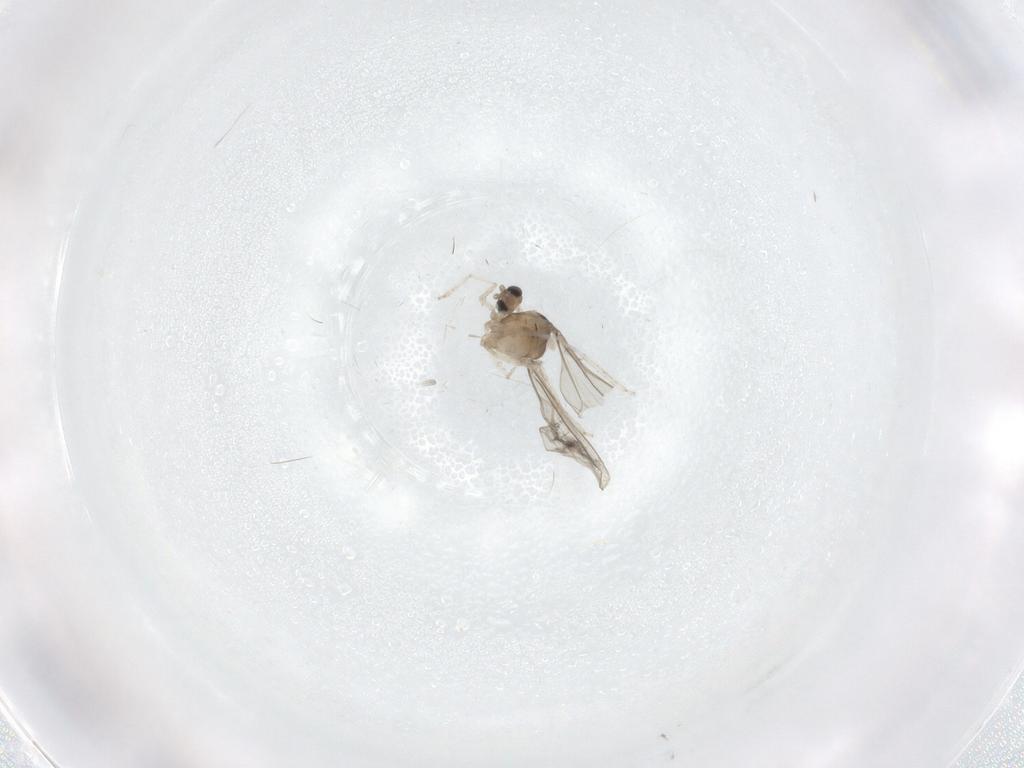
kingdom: Animalia
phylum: Arthropoda
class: Insecta
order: Diptera
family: Cecidomyiidae
